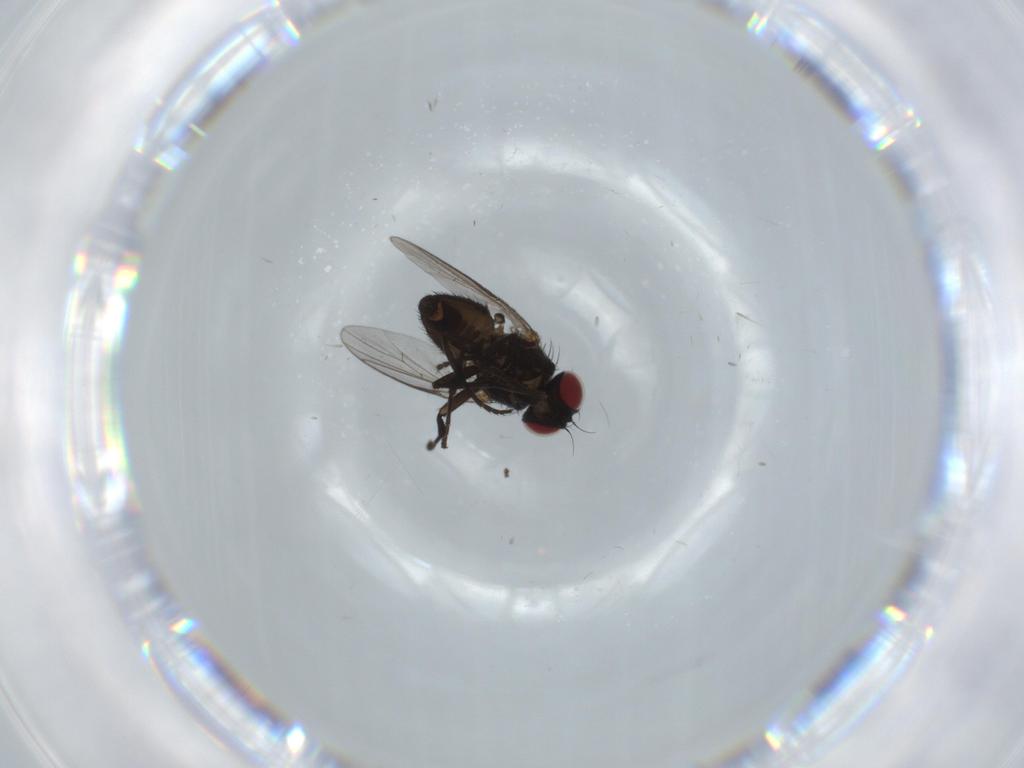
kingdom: Animalia
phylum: Arthropoda
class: Insecta
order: Diptera
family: Agromyzidae
